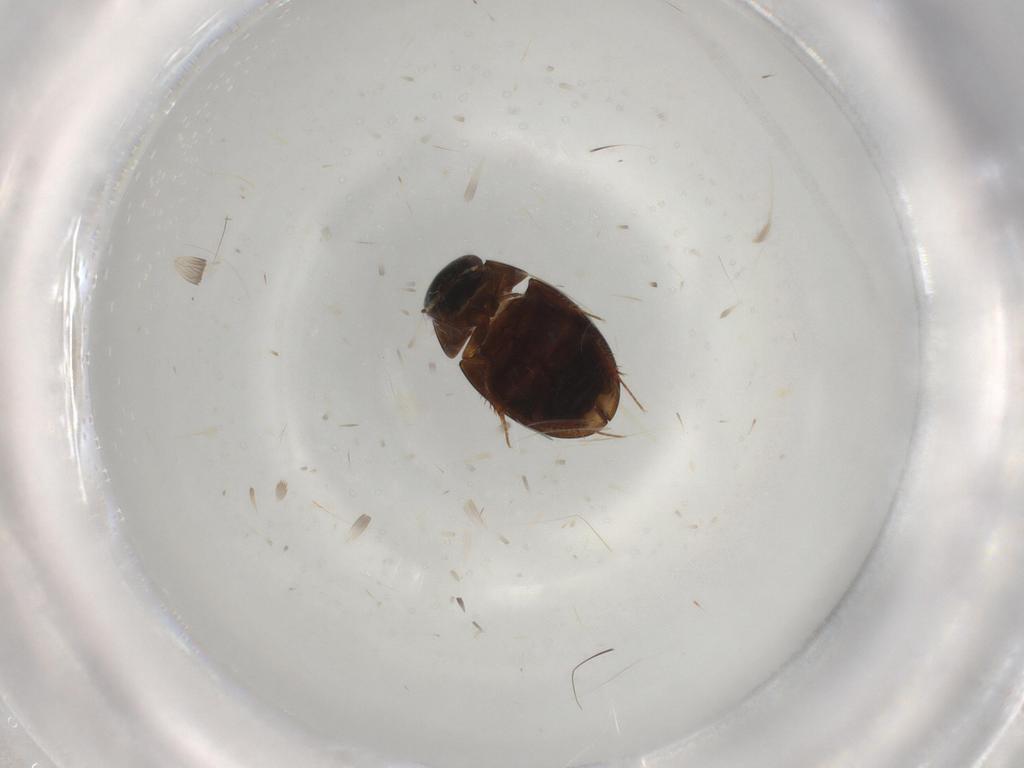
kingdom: Animalia
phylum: Arthropoda
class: Insecta
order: Coleoptera
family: Hydrophilidae
